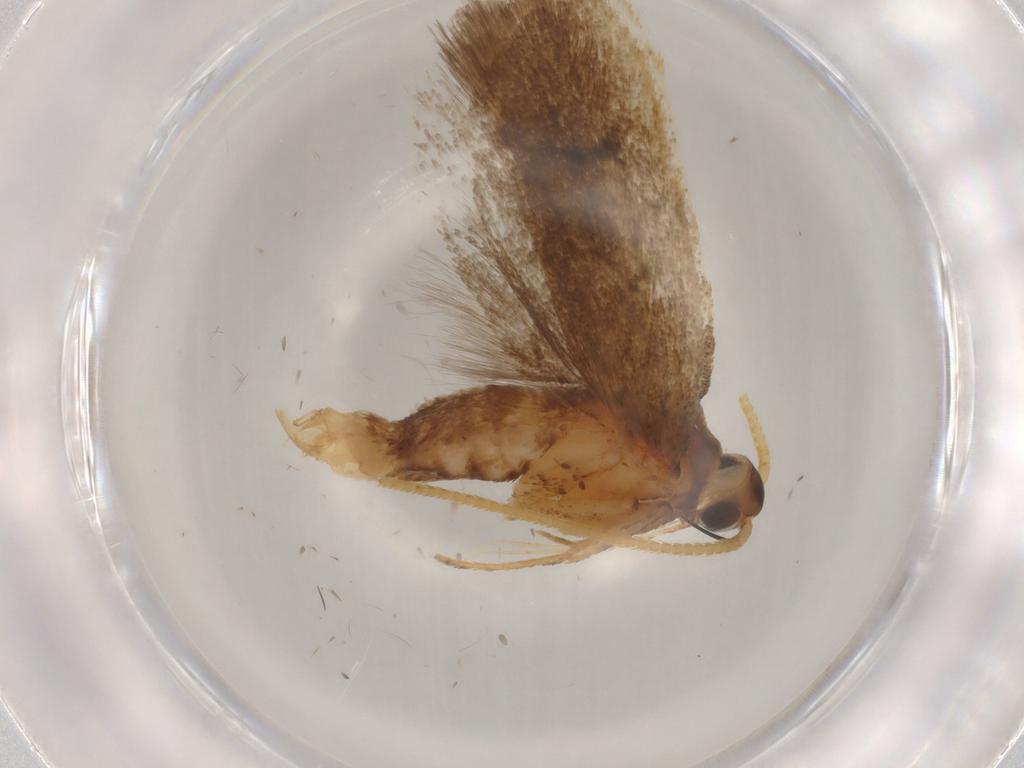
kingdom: Animalia
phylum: Arthropoda
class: Insecta
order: Lepidoptera
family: Lecithoceridae
